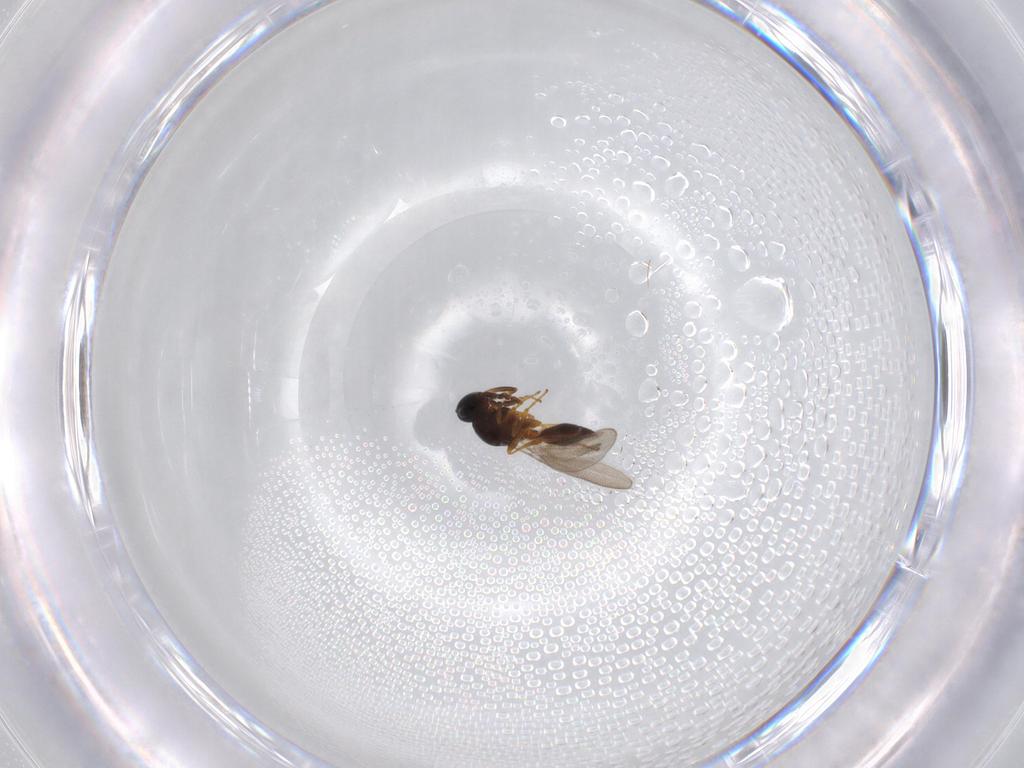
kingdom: Animalia
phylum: Arthropoda
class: Insecta
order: Hymenoptera
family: Platygastridae
